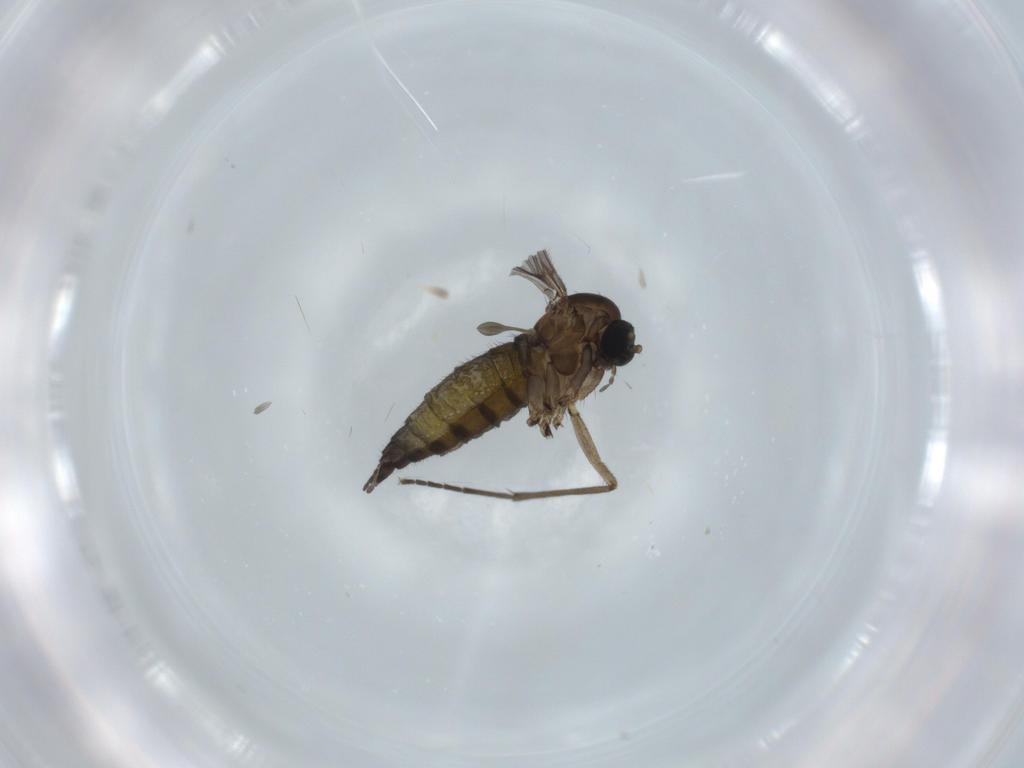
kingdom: Animalia
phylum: Arthropoda
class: Insecta
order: Diptera
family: Sciaridae
